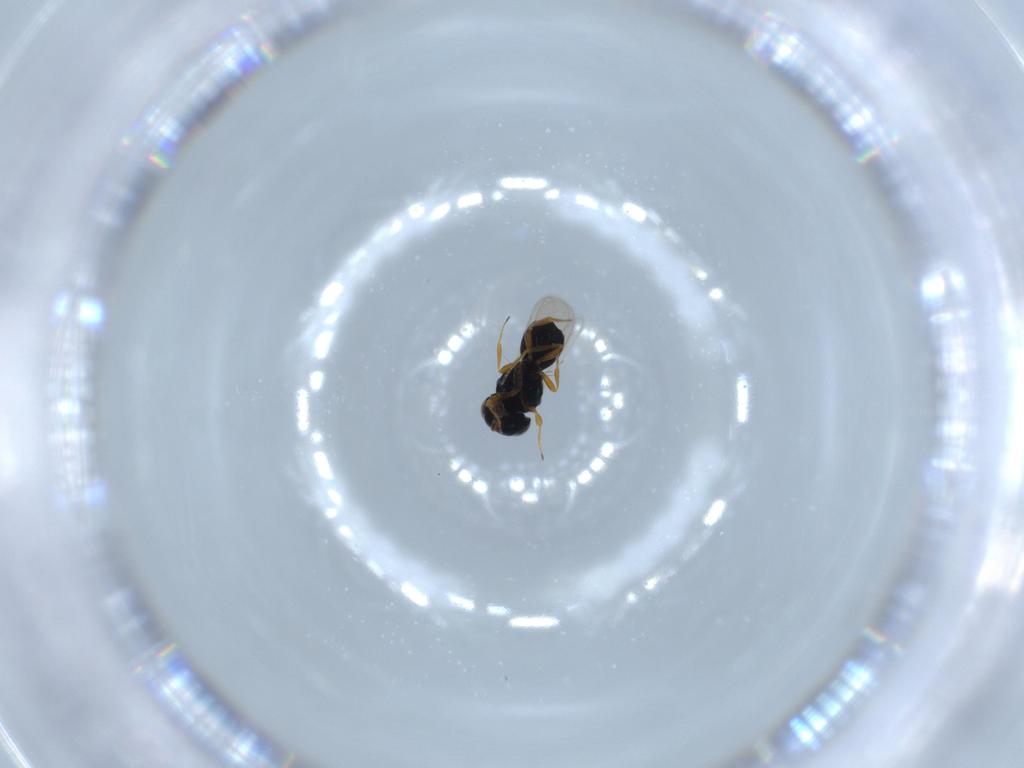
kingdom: Animalia
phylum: Arthropoda
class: Insecta
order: Hymenoptera
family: Scelionidae
